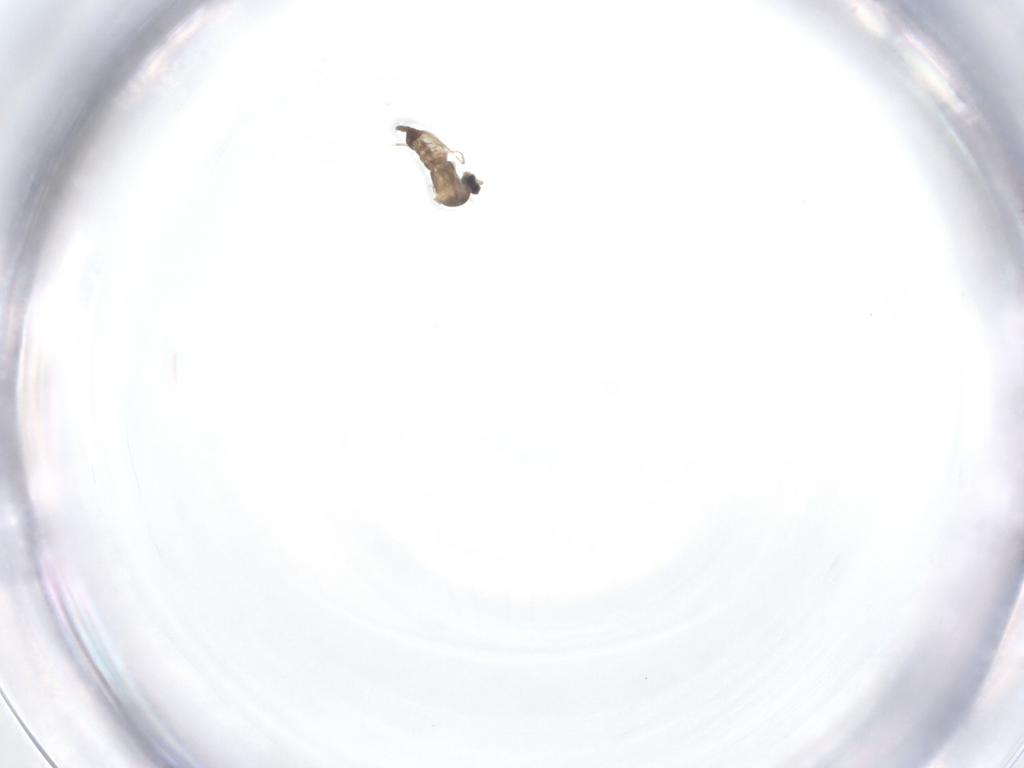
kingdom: Animalia
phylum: Arthropoda
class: Insecta
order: Diptera
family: Cecidomyiidae
